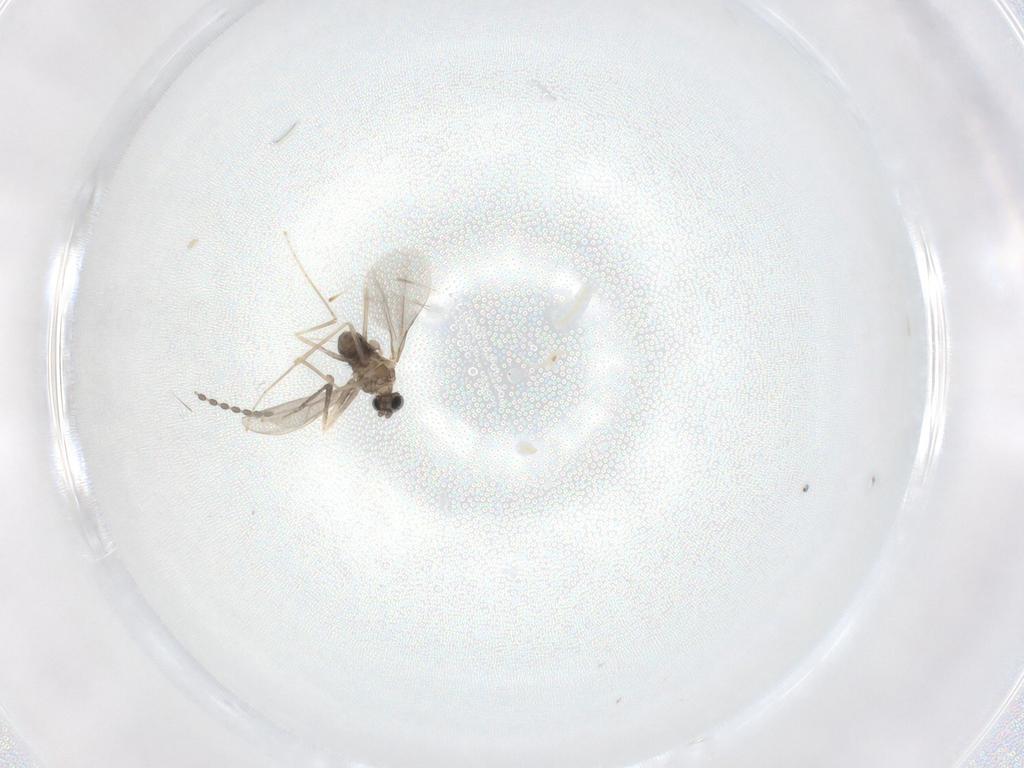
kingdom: Animalia
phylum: Arthropoda
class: Insecta
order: Diptera
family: Cecidomyiidae
